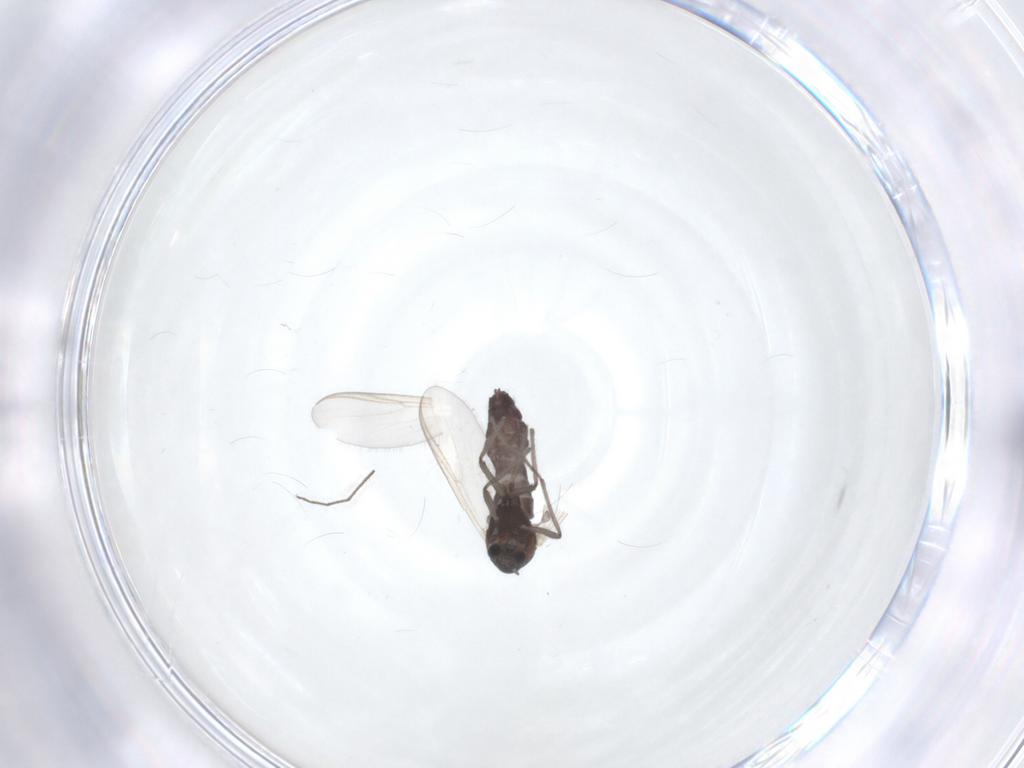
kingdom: Animalia
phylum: Arthropoda
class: Insecta
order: Diptera
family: Chironomidae
